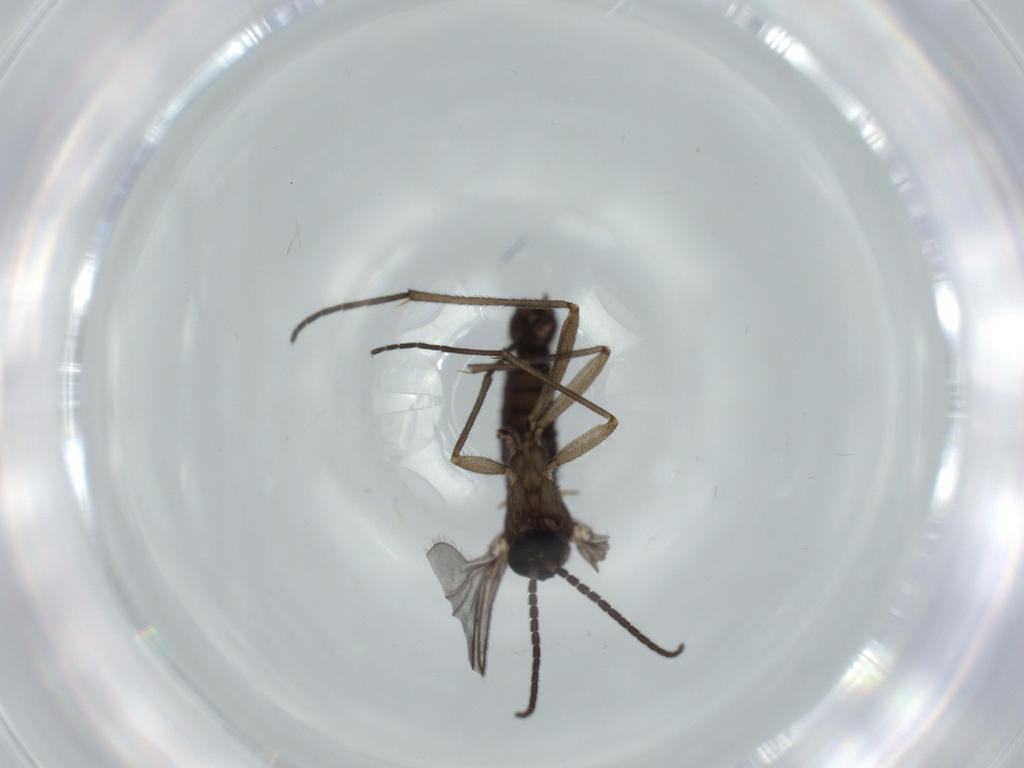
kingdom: Animalia
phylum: Arthropoda
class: Insecta
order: Diptera
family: Sciaridae
